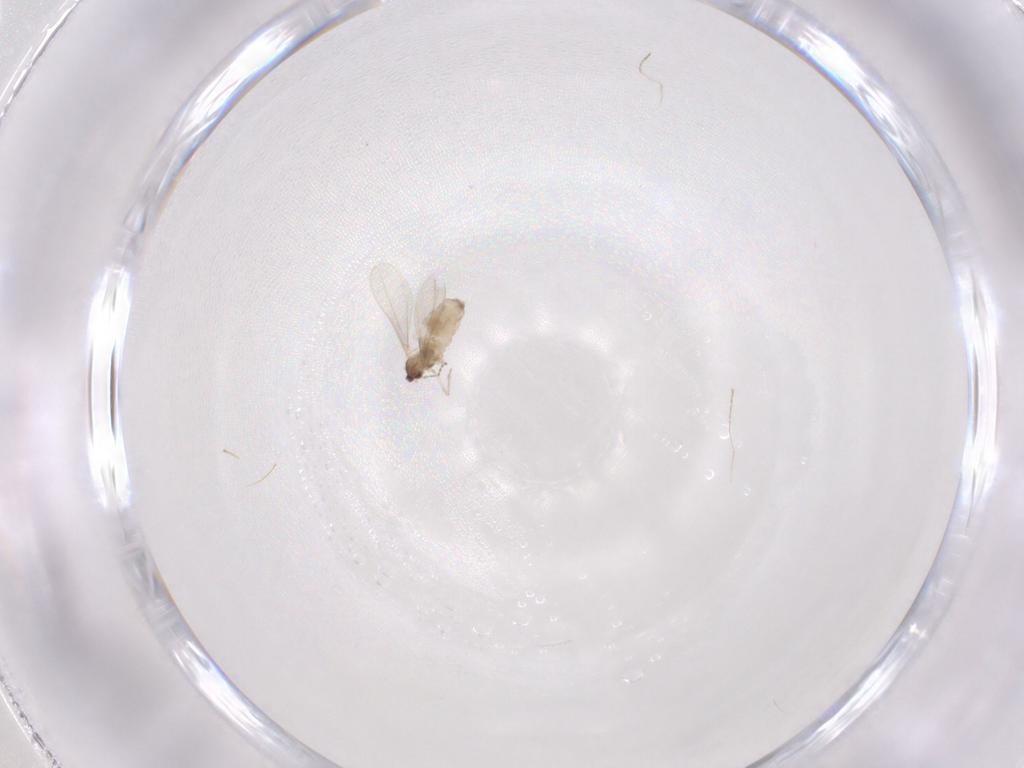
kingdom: Animalia
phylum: Arthropoda
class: Insecta
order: Diptera
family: Cecidomyiidae
